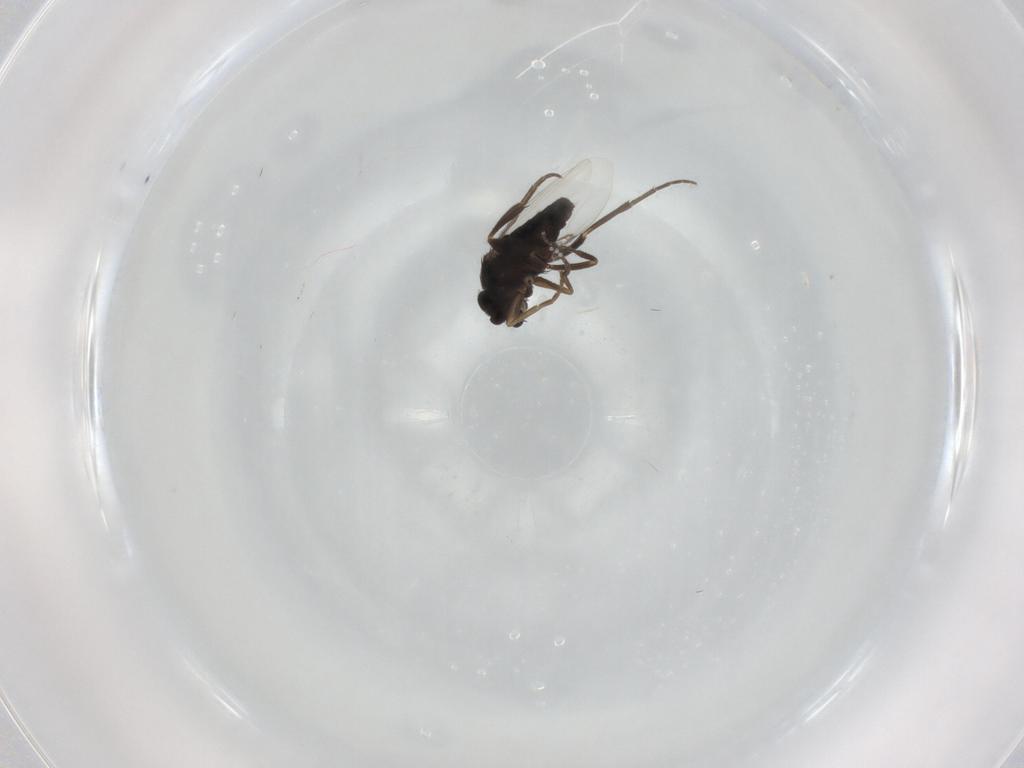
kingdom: Animalia
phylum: Arthropoda
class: Insecta
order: Diptera
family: Phoridae
